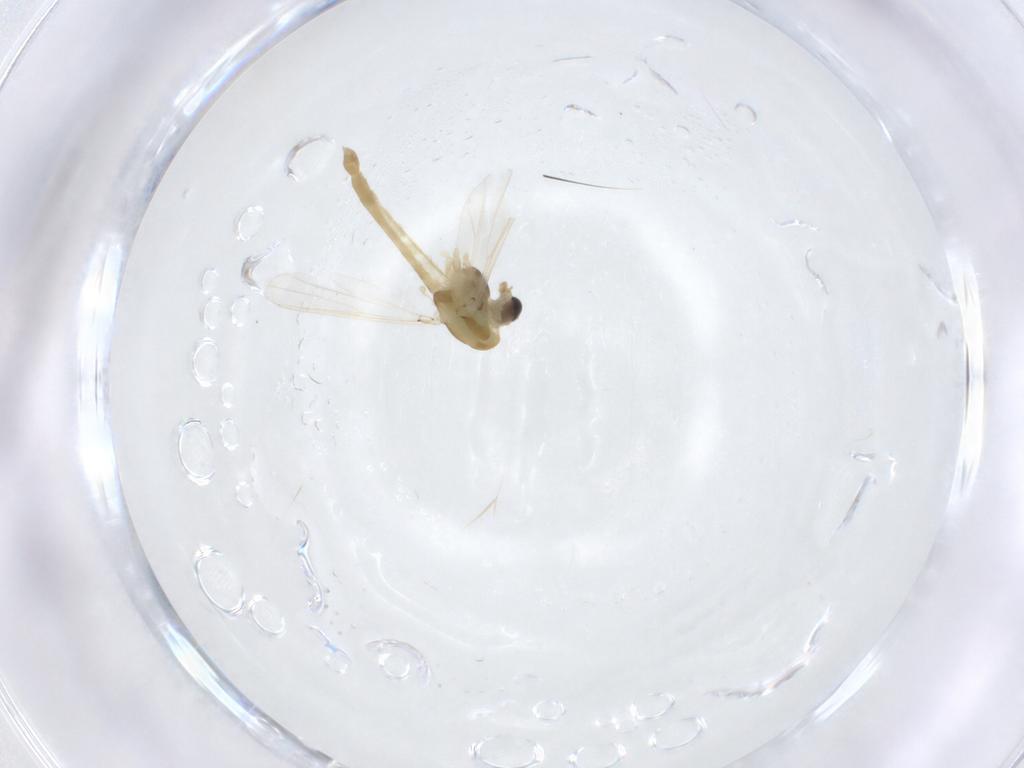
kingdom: Animalia
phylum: Arthropoda
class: Insecta
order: Diptera
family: Chironomidae
